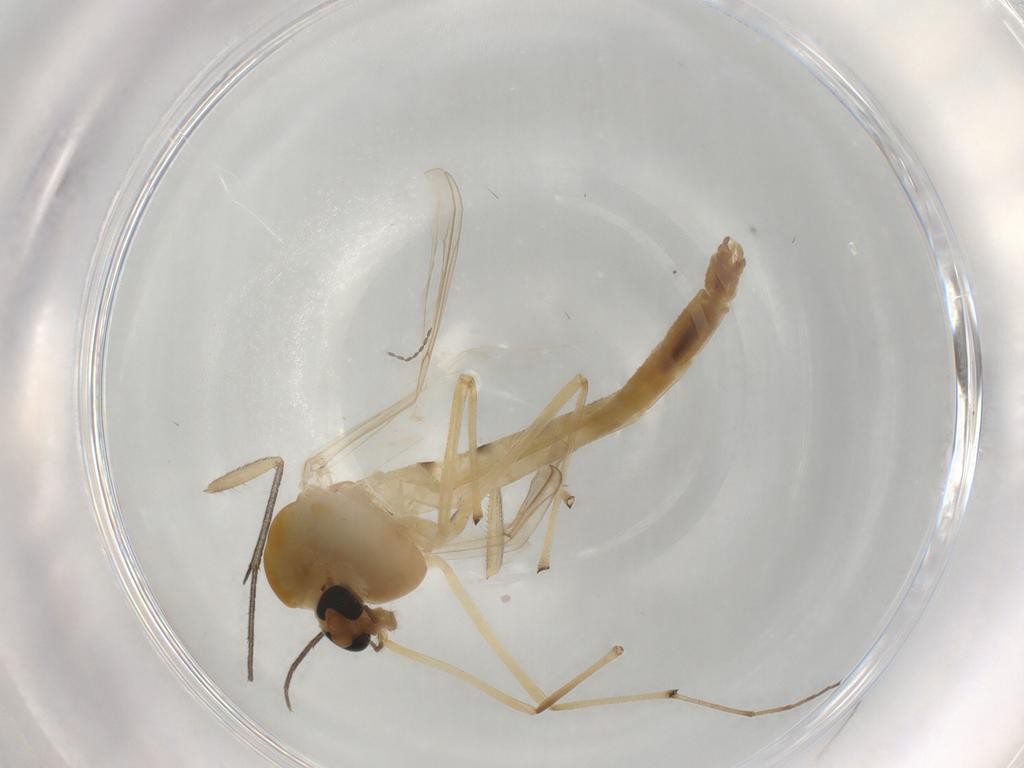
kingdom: Animalia
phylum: Arthropoda
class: Insecta
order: Diptera
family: Chironomidae
